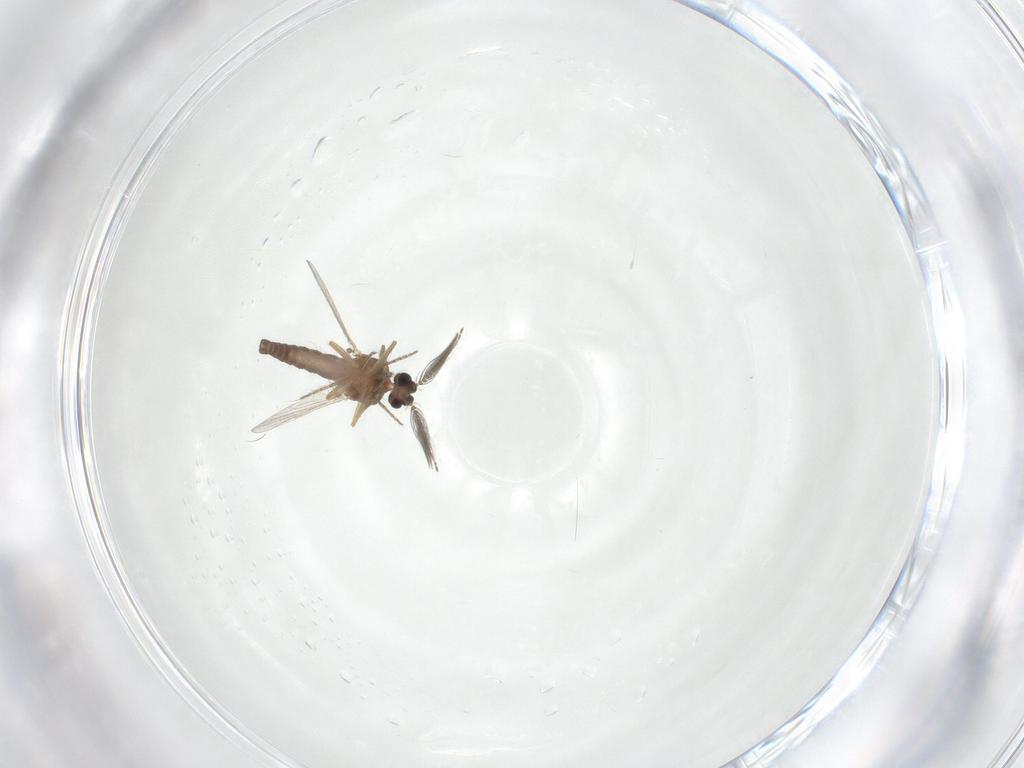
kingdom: Animalia
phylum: Arthropoda
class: Insecta
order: Diptera
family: Ceratopogonidae
